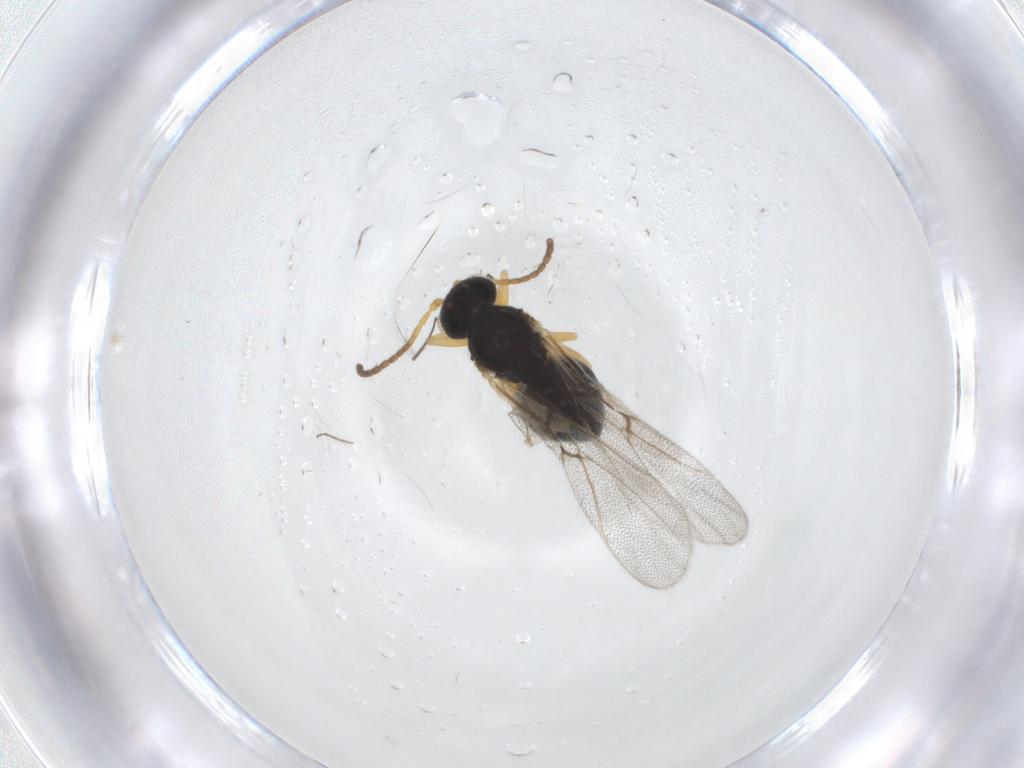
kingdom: Animalia
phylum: Arthropoda
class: Insecta
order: Hymenoptera
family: Cynipidae
